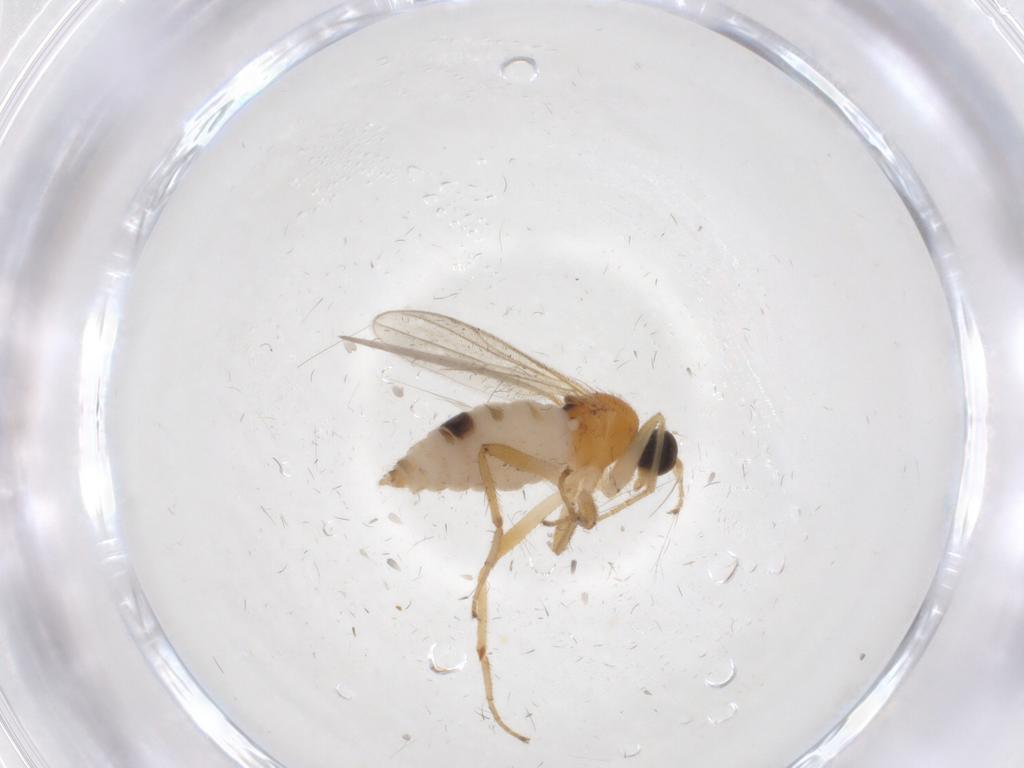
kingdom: Animalia
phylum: Arthropoda
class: Insecta
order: Diptera
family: Hybotidae
